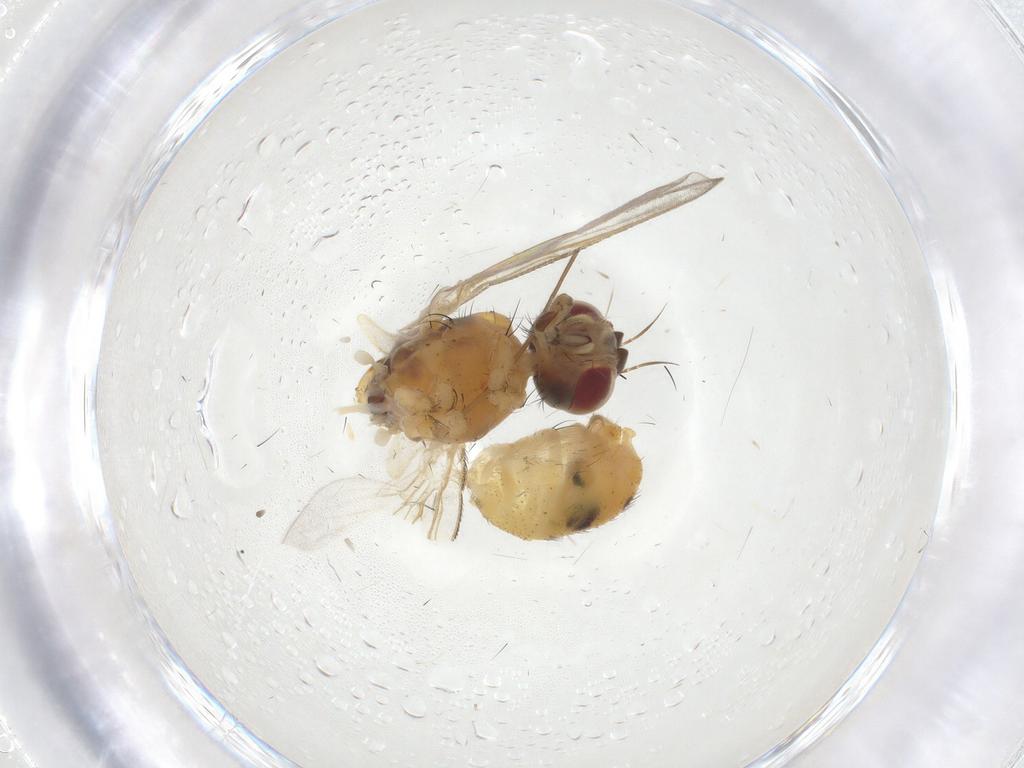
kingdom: Animalia
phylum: Arthropoda
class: Insecta
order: Diptera
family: Muscidae
